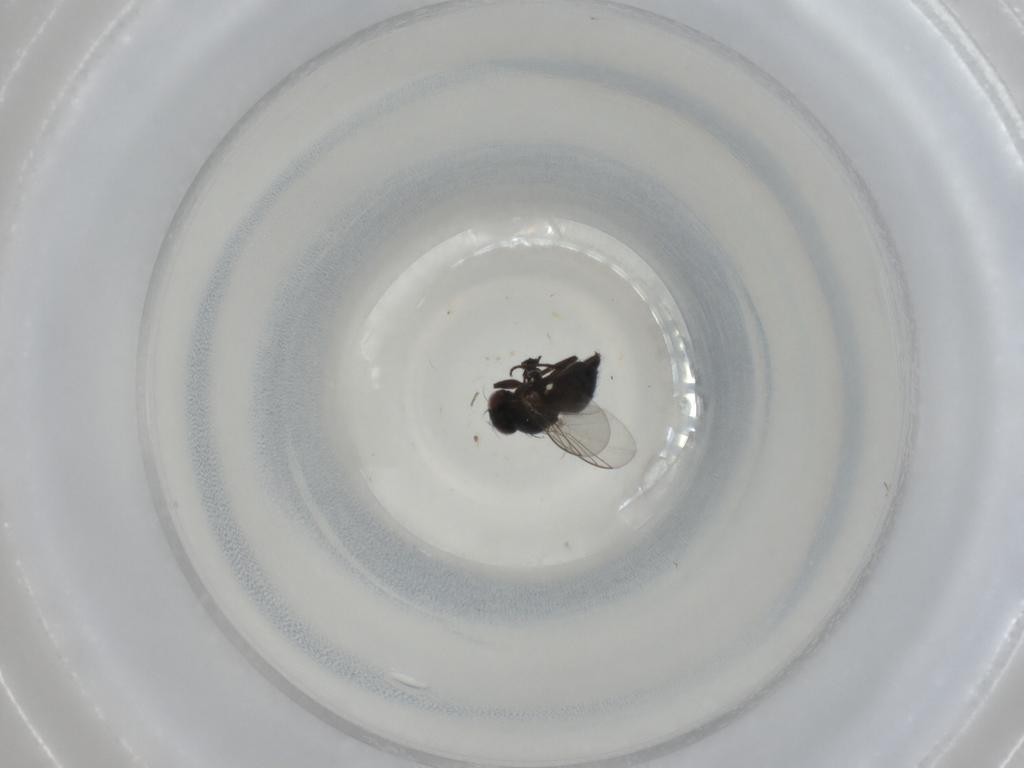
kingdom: Animalia
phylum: Arthropoda
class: Insecta
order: Diptera
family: Cecidomyiidae
